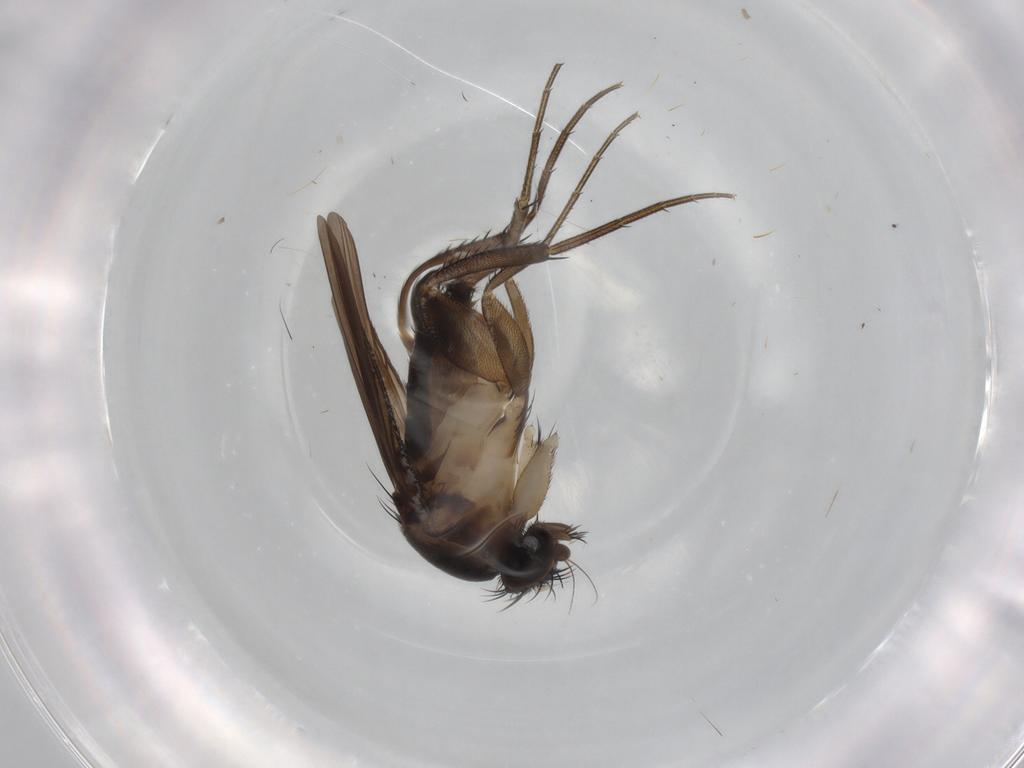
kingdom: Animalia
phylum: Arthropoda
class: Insecta
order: Diptera
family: Phoridae
